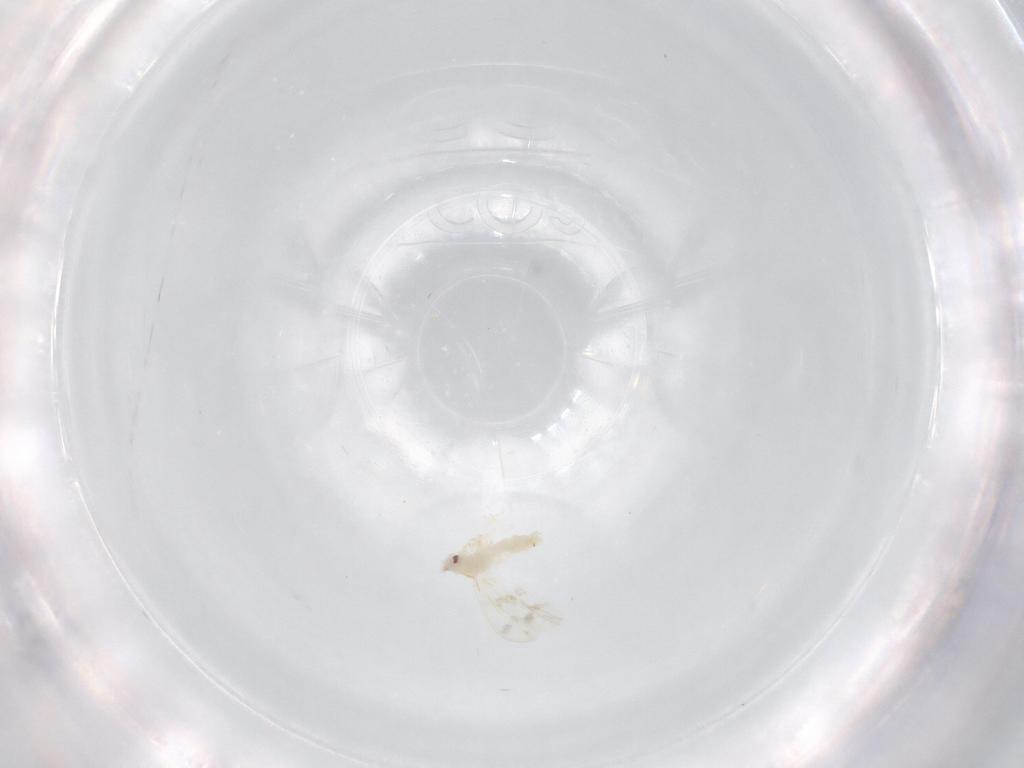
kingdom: Animalia
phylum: Arthropoda
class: Insecta
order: Hemiptera
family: Aleyrodidae
